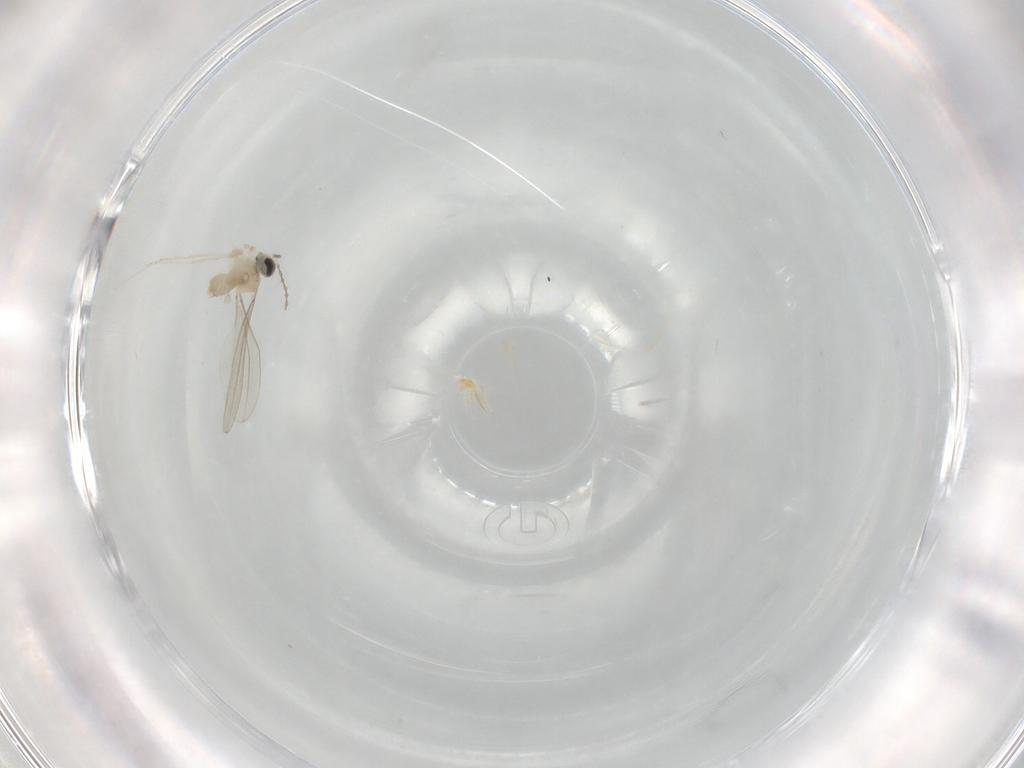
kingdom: Animalia
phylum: Arthropoda
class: Insecta
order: Diptera
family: Cecidomyiidae
